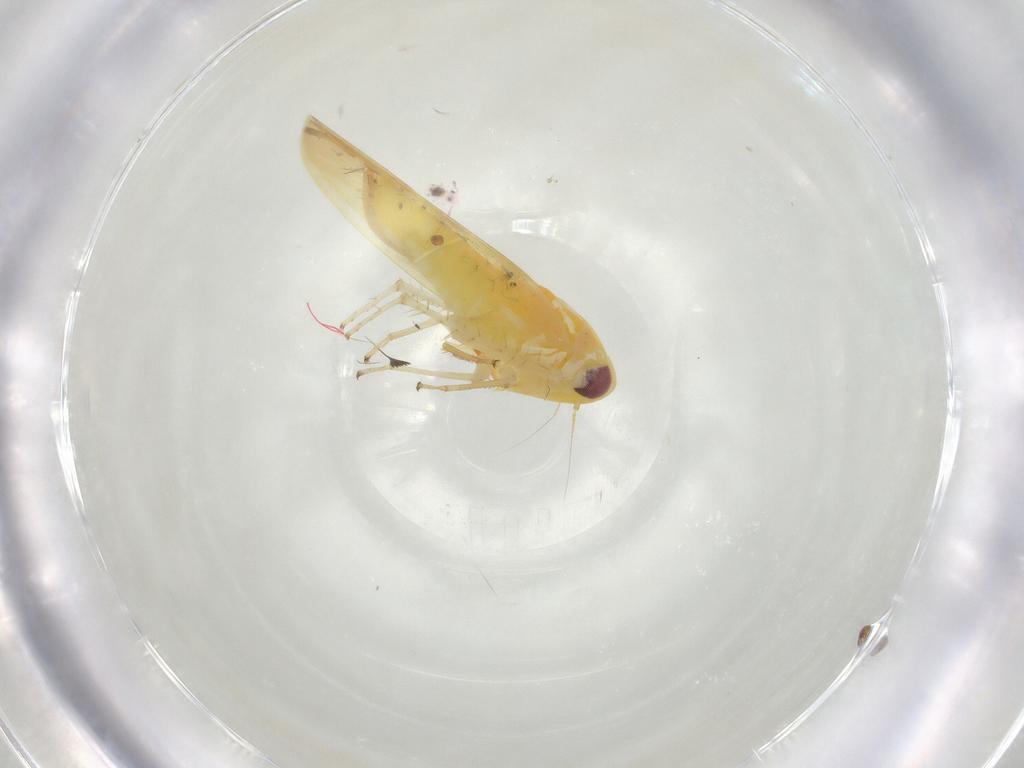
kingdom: Animalia
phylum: Arthropoda
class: Insecta
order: Hemiptera
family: Cicadellidae
